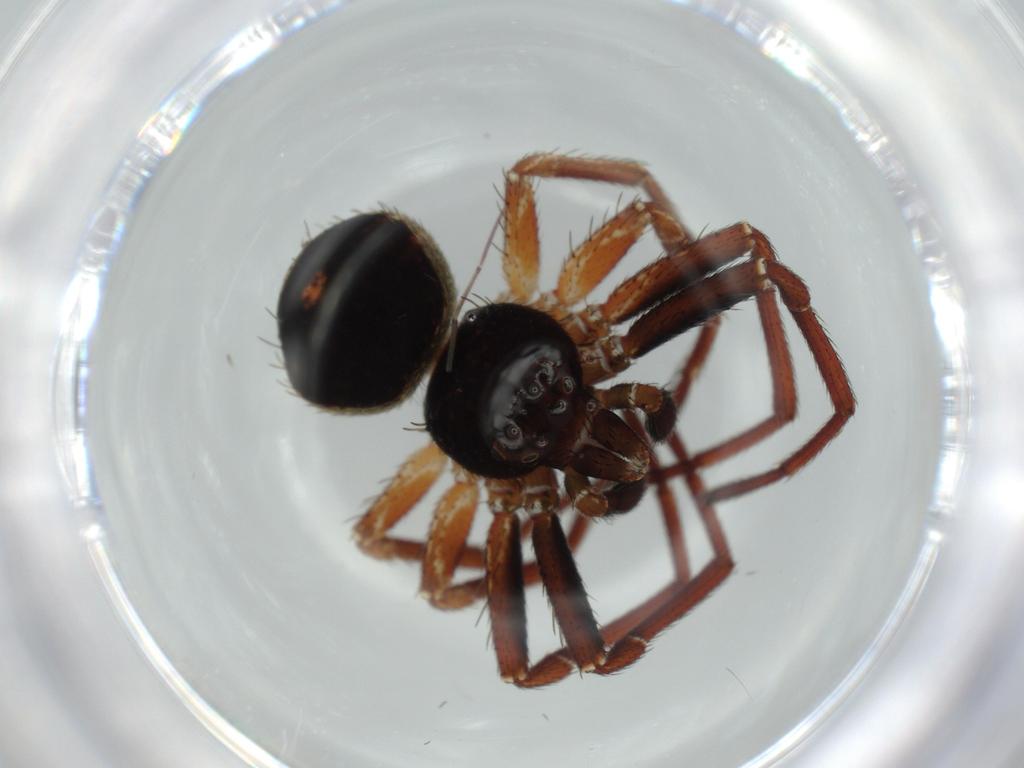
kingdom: Animalia
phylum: Arthropoda
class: Arachnida
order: Araneae
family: Thomisidae
